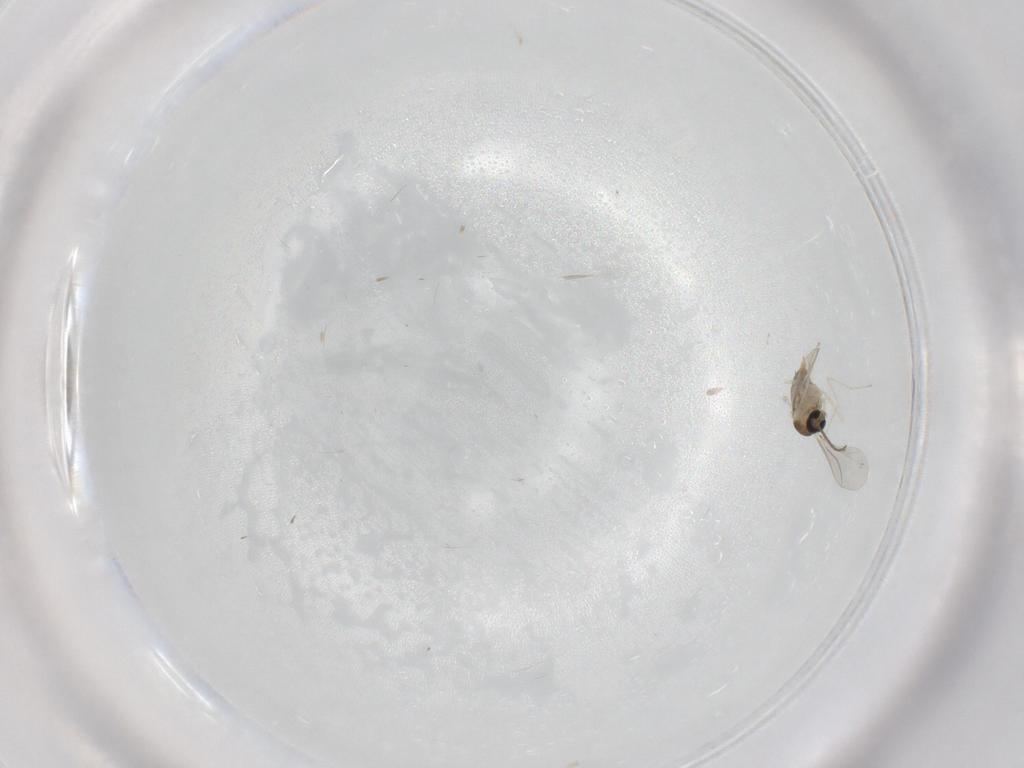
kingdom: Animalia
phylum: Arthropoda
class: Insecta
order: Diptera
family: Cecidomyiidae
